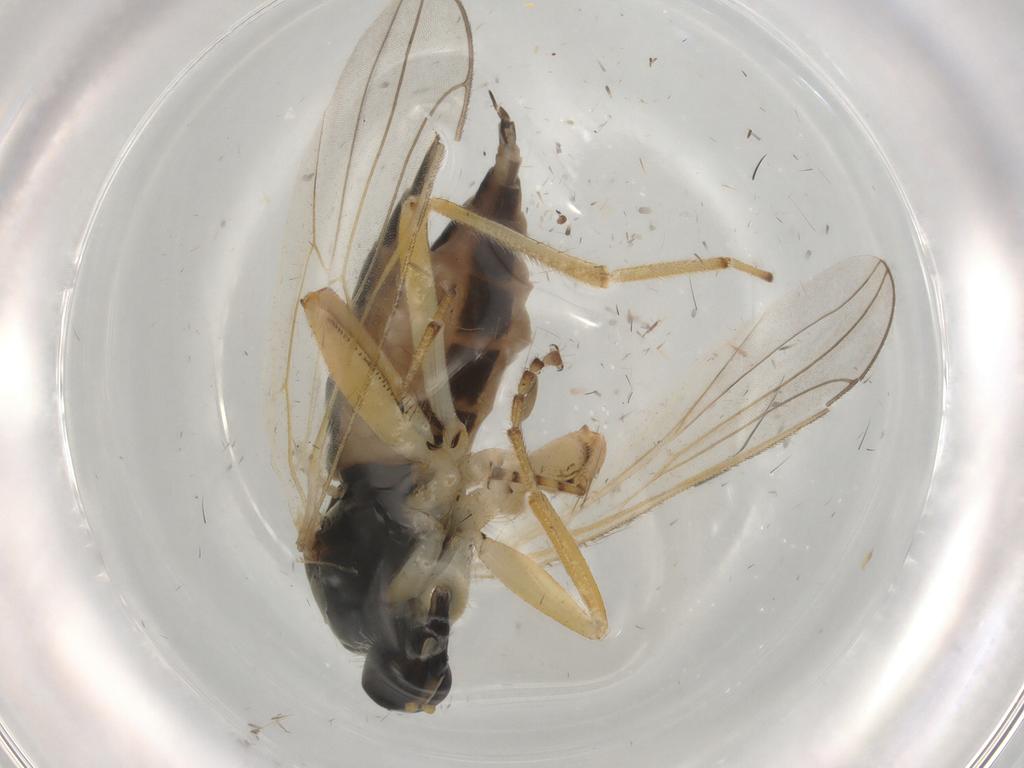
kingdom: Animalia
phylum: Arthropoda
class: Insecta
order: Diptera
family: Hybotidae
